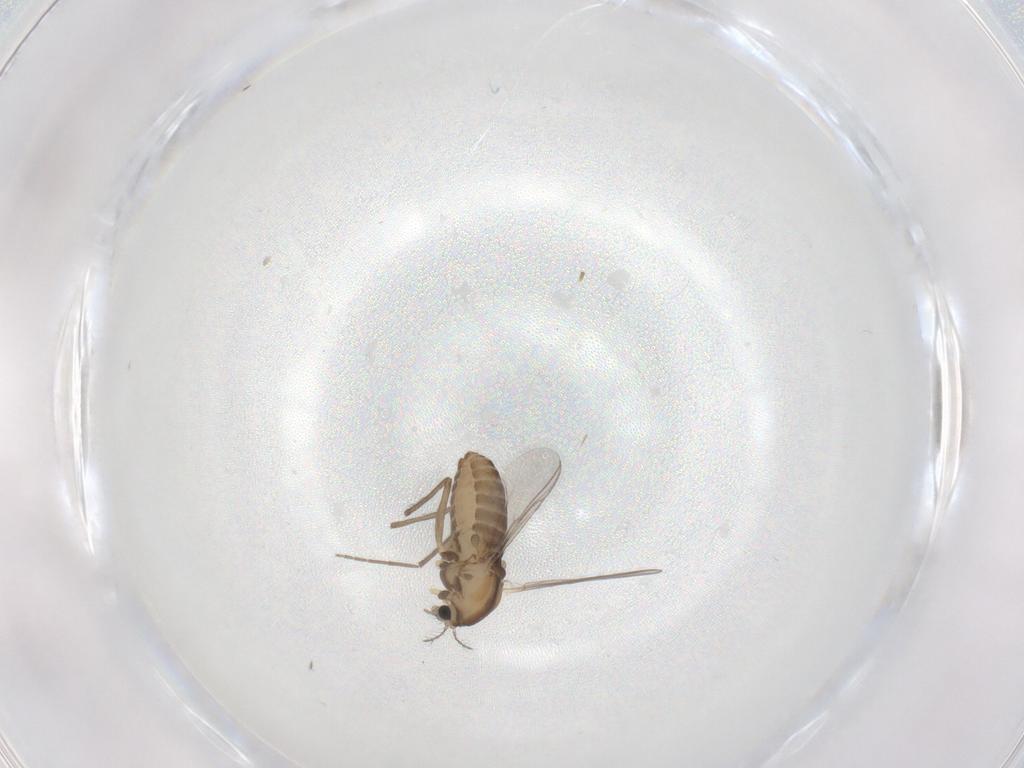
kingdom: Animalia
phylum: Arthropoda
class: Insecta
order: Diptera
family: Chironomidae
